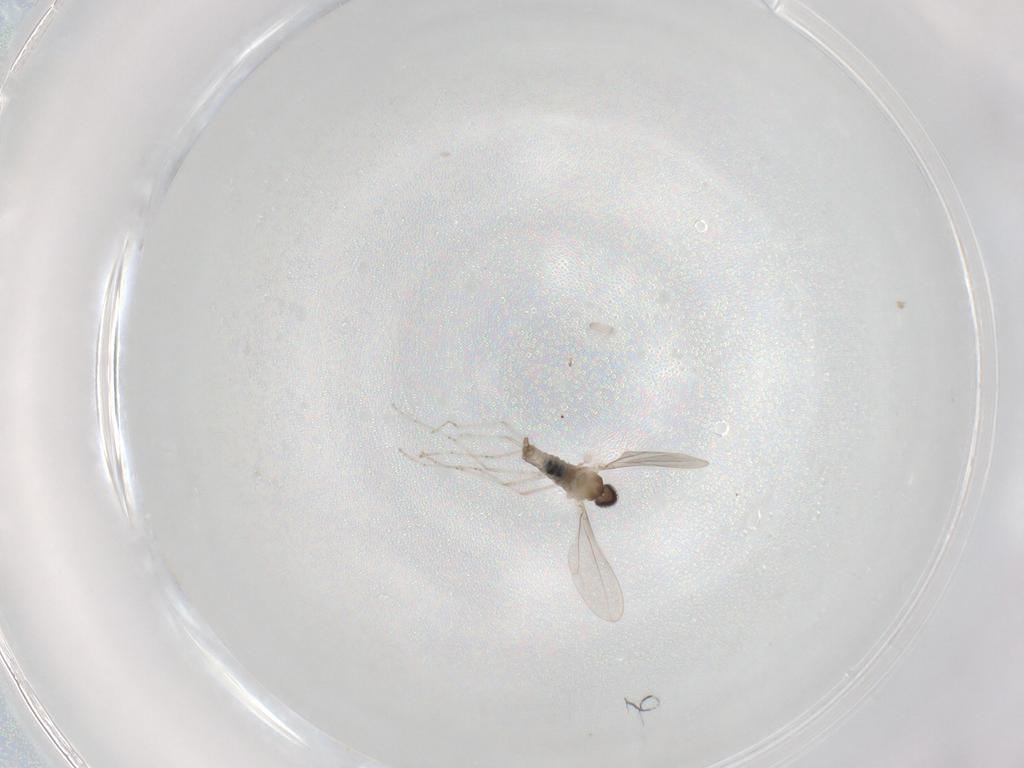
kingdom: Animalia
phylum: Arthropoda
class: Insecta
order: Diptera
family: Cecidomyiidae
